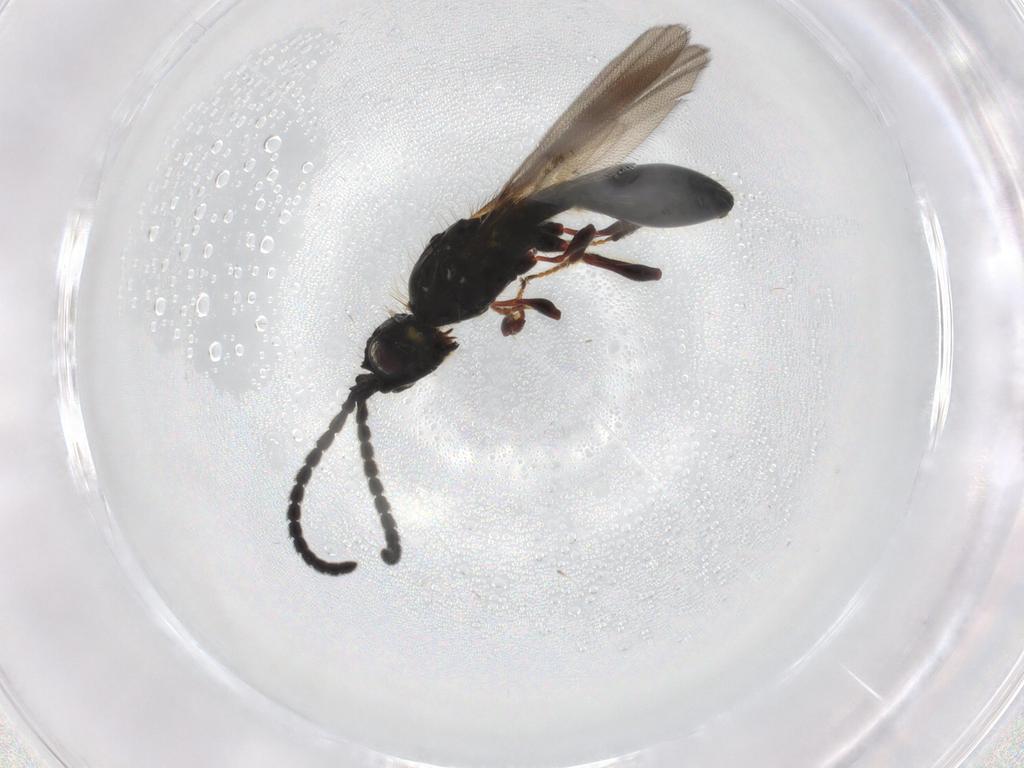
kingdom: Animalia
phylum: Arthropoda
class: Insecta
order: Hymenoptera
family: Diapriidae
